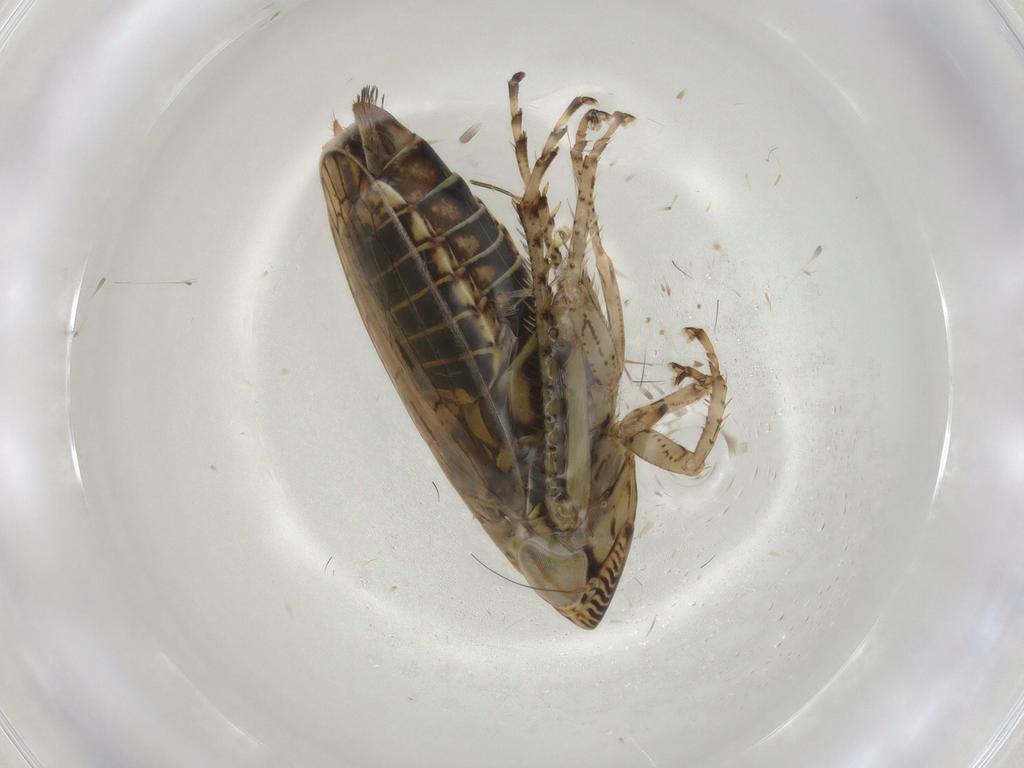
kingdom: Animalia
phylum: Arthropoda
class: Insecta
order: Hemiptera
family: Achilidae
